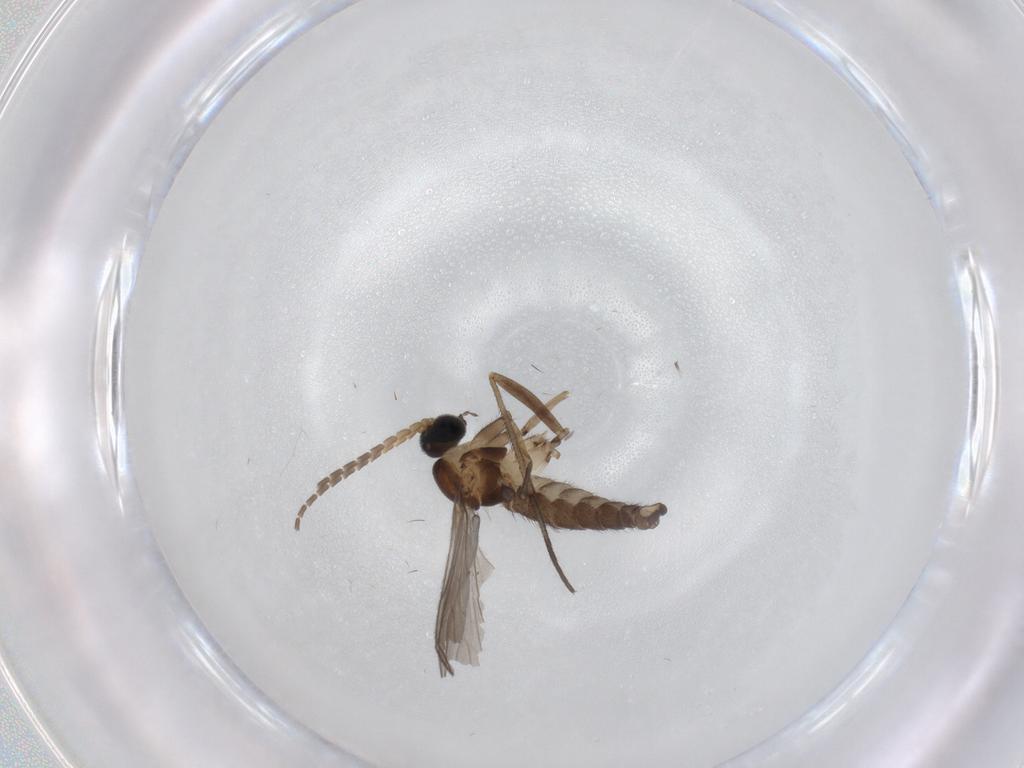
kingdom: Animalia
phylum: Arthropoda
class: Insecta
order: Diptera
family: Sciaridae
